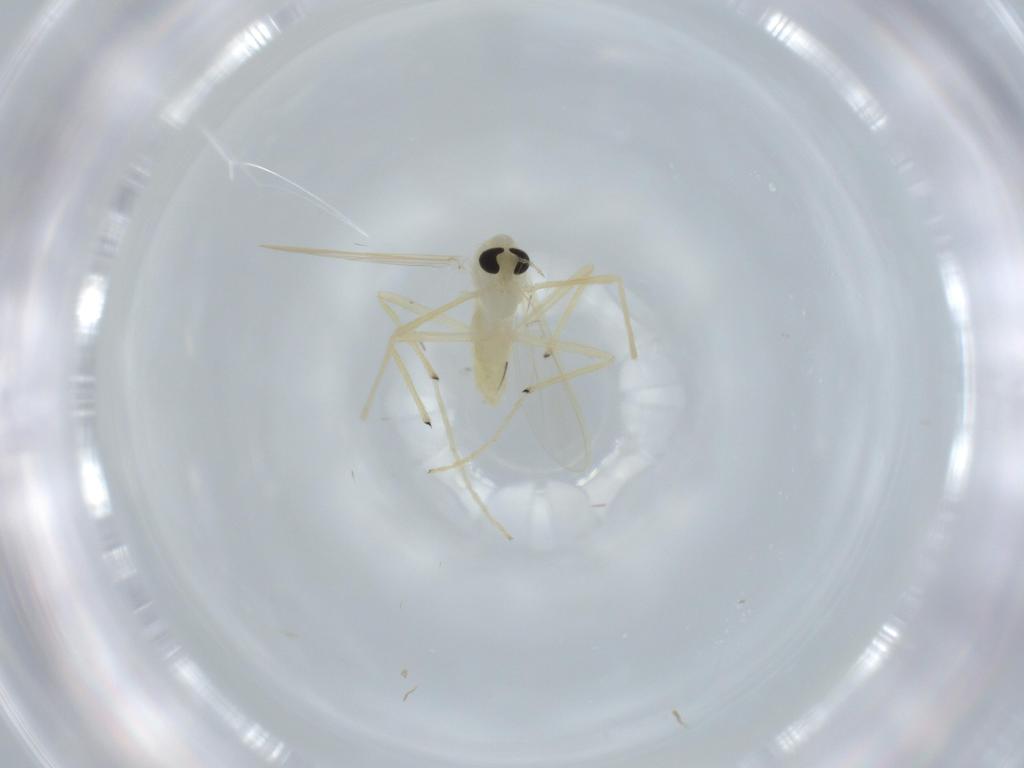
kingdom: Animalia
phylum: Arthropoda
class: Insecta
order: Diptera
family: Chironomidae
